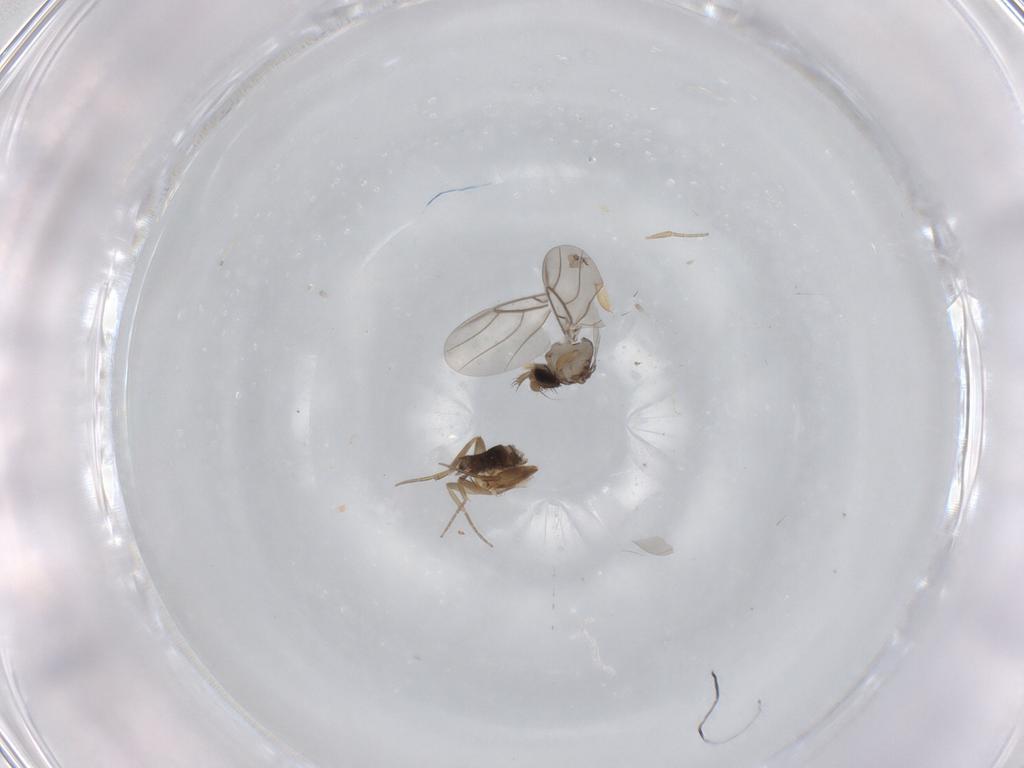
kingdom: Animalia
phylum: Arthropoda
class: Insecta
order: Diptera
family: Phoridae
